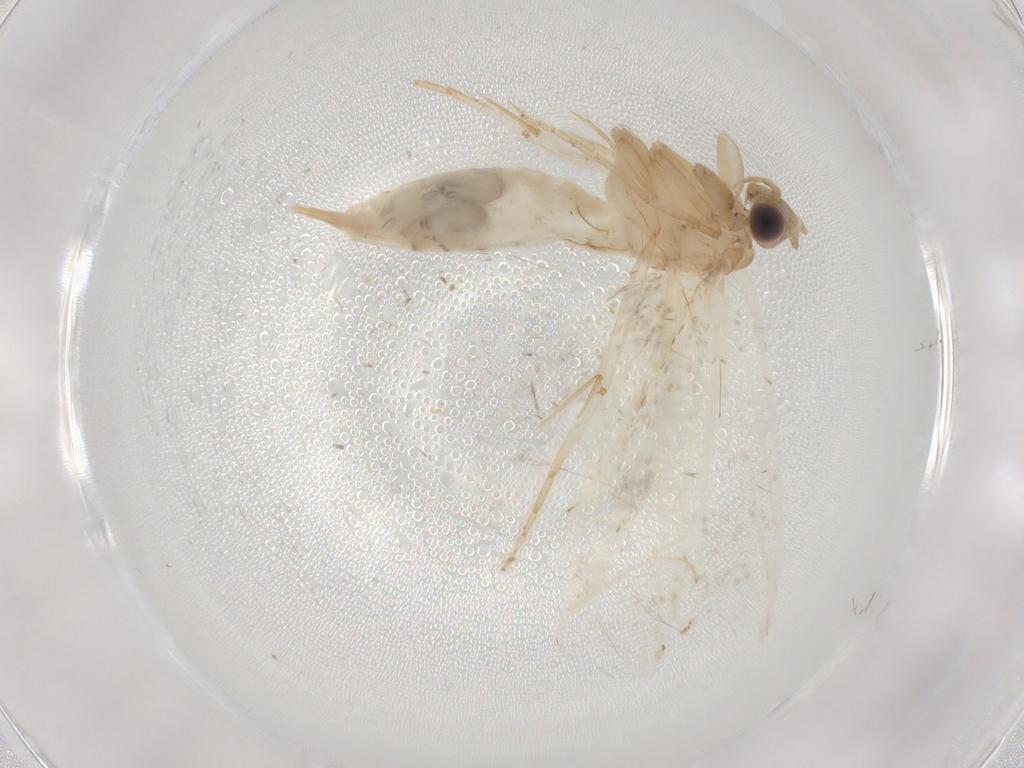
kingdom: Animalia
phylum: Arthropoda
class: Insecta
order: Lepidoptera
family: Tineidae
